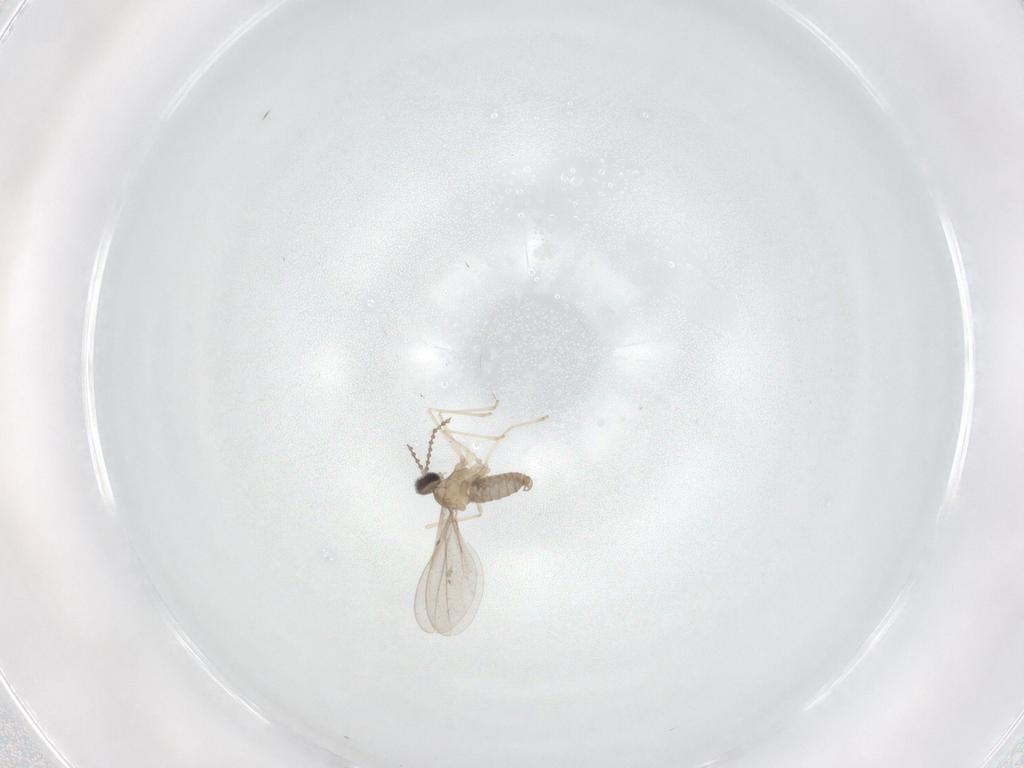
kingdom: Animalia
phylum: Arthropoda
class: Insecta
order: Diptera
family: Cecidomyiidae
